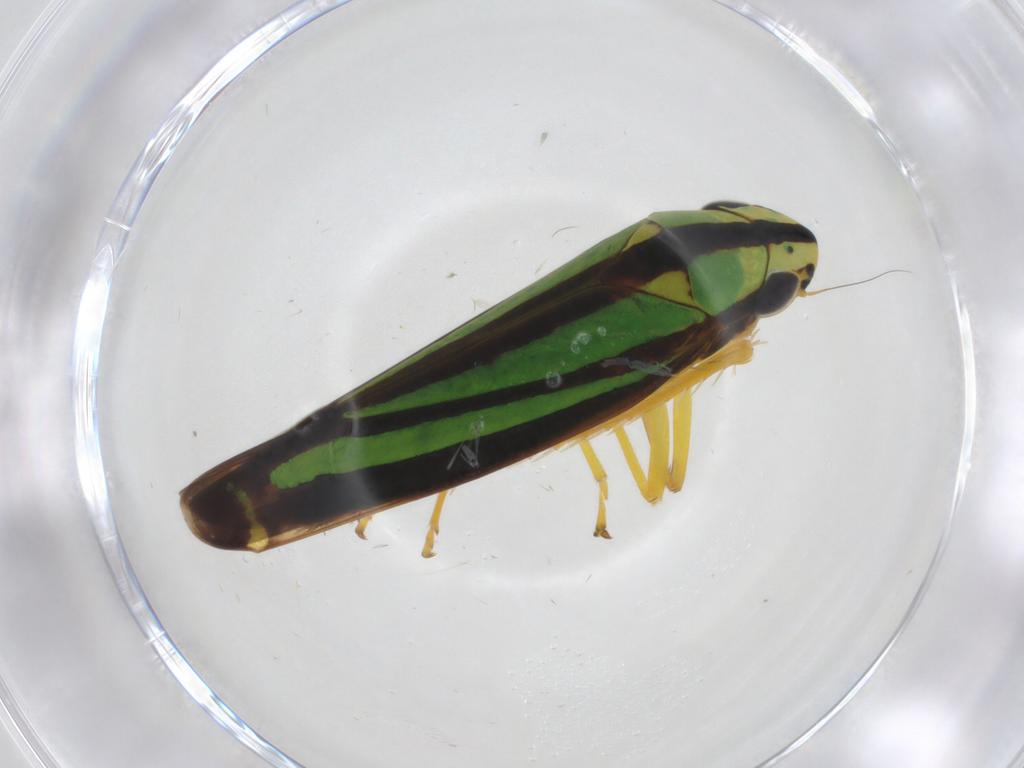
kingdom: Animalia
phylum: Arthropoda
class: Insecta
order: Hemiptera
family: Cicadellidae
